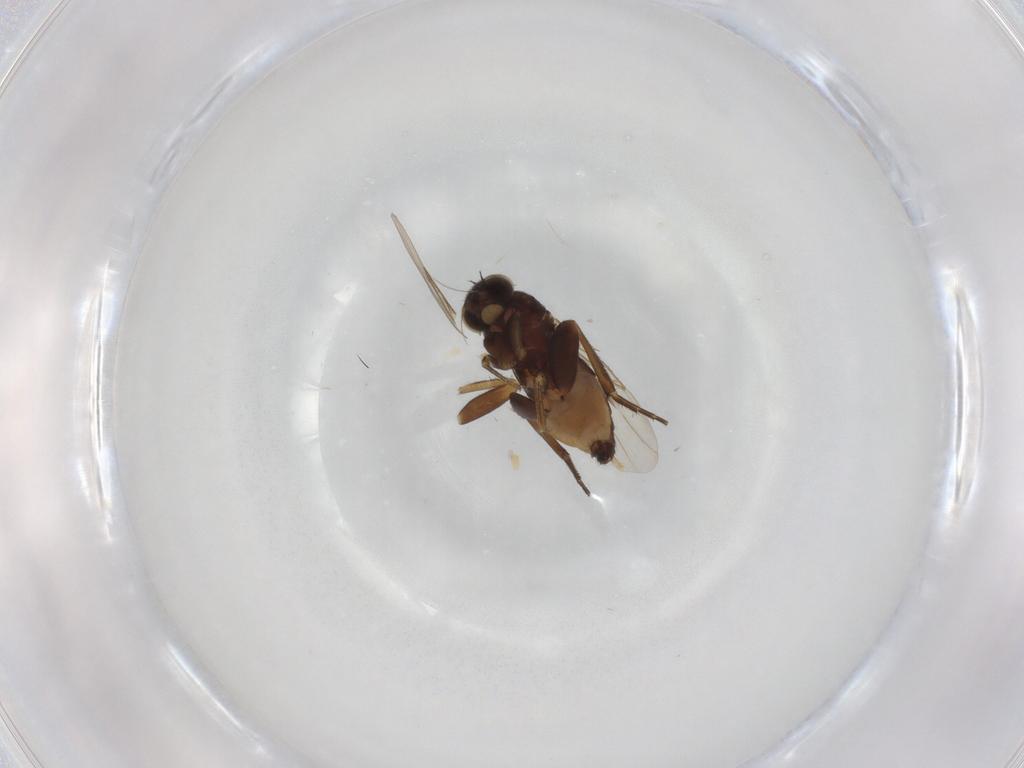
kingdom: Animalia
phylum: Arthropoda
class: Insecta
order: Diptera
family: Phoridae
